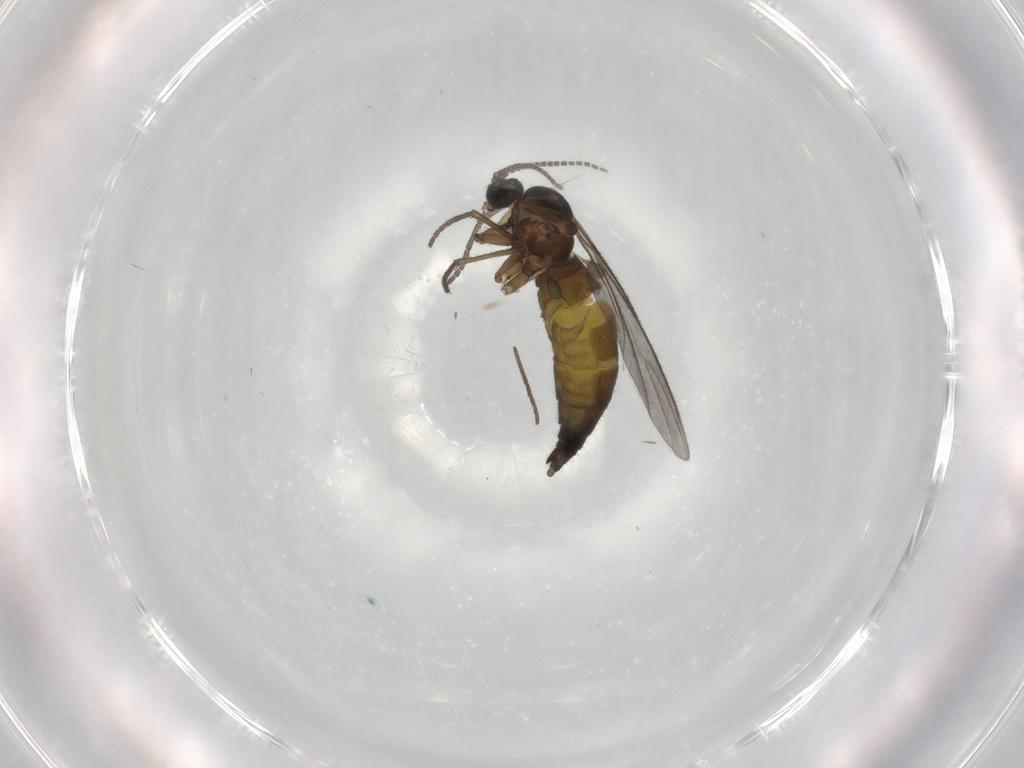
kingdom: Animalia
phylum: Arthropoda
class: Insecta
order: Diptera
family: Sciaridae
